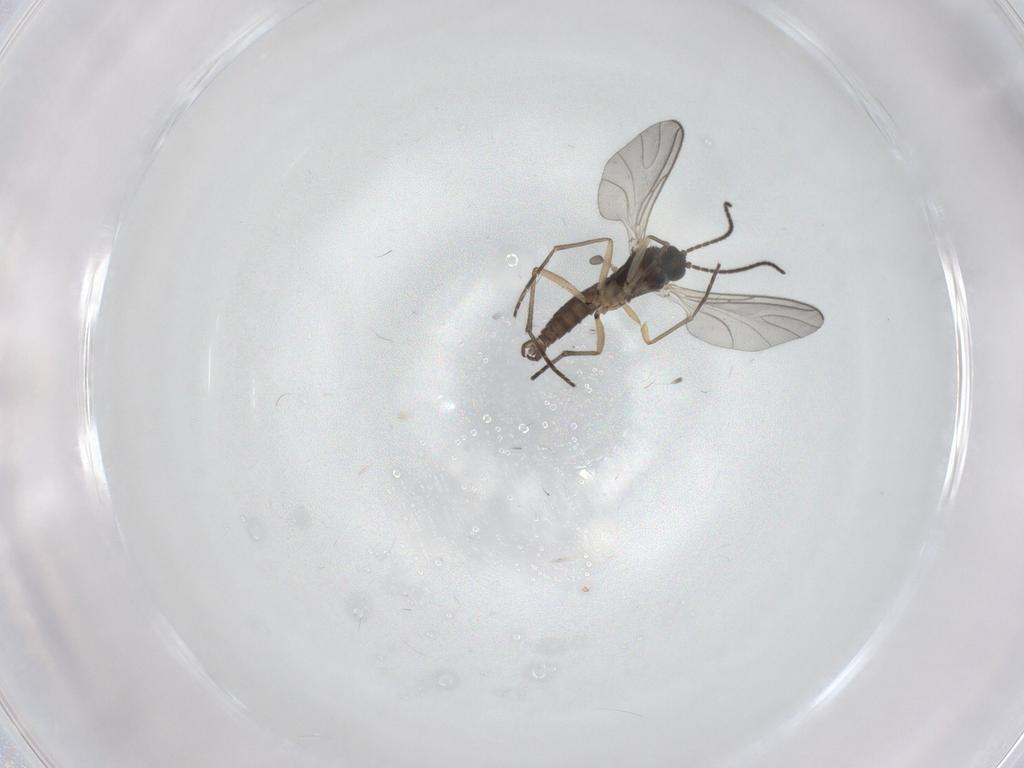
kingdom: Animalia
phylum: Arthropoda
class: Insecta
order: Diptera
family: Sciaridae
